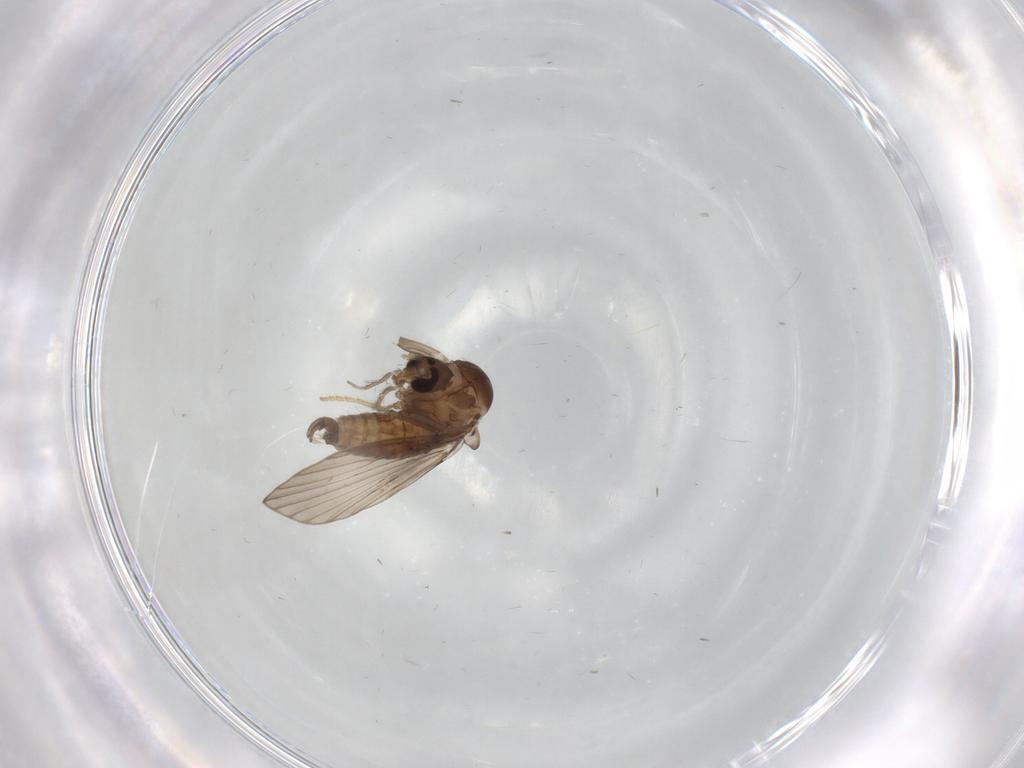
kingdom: Animalia
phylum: Arthropoda
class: Insecta
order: Diptera
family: Psychodidae
